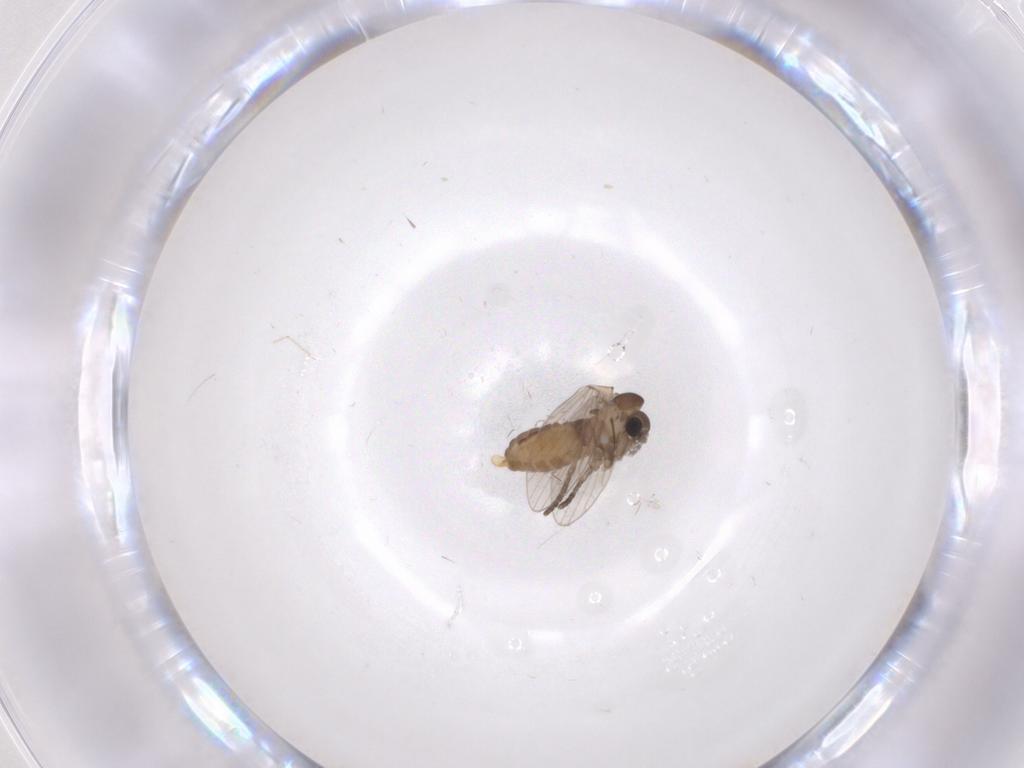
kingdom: Animalia
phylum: Arthropoda
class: Insecta
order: Diptera
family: Psychodidae
